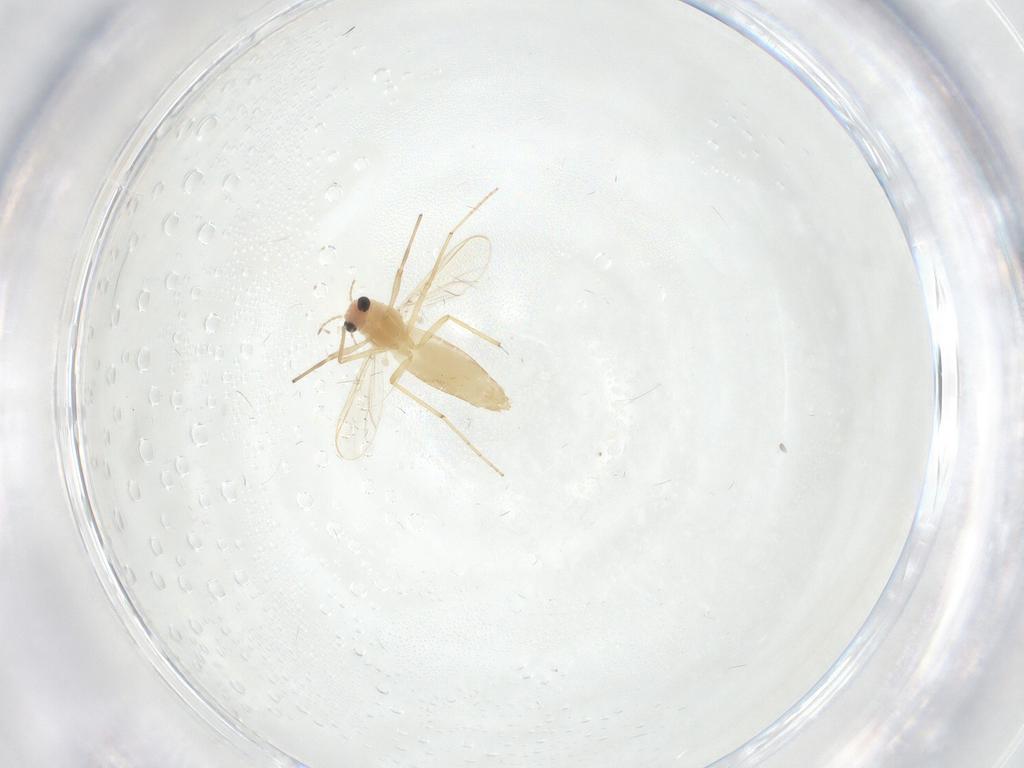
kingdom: Animalia
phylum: Arthropoda
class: Insecta
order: Diptera
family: Chironomidae
